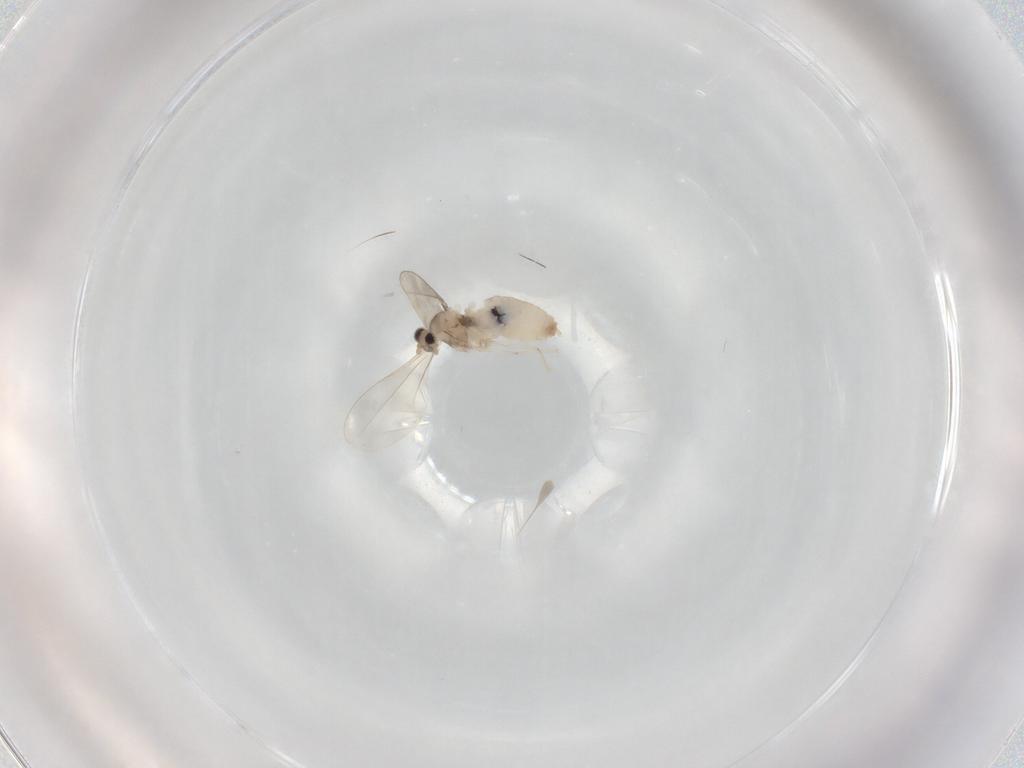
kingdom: Animalia
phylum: Arthropoda
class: Insecta
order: Diptera
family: Cecidomyiidae
